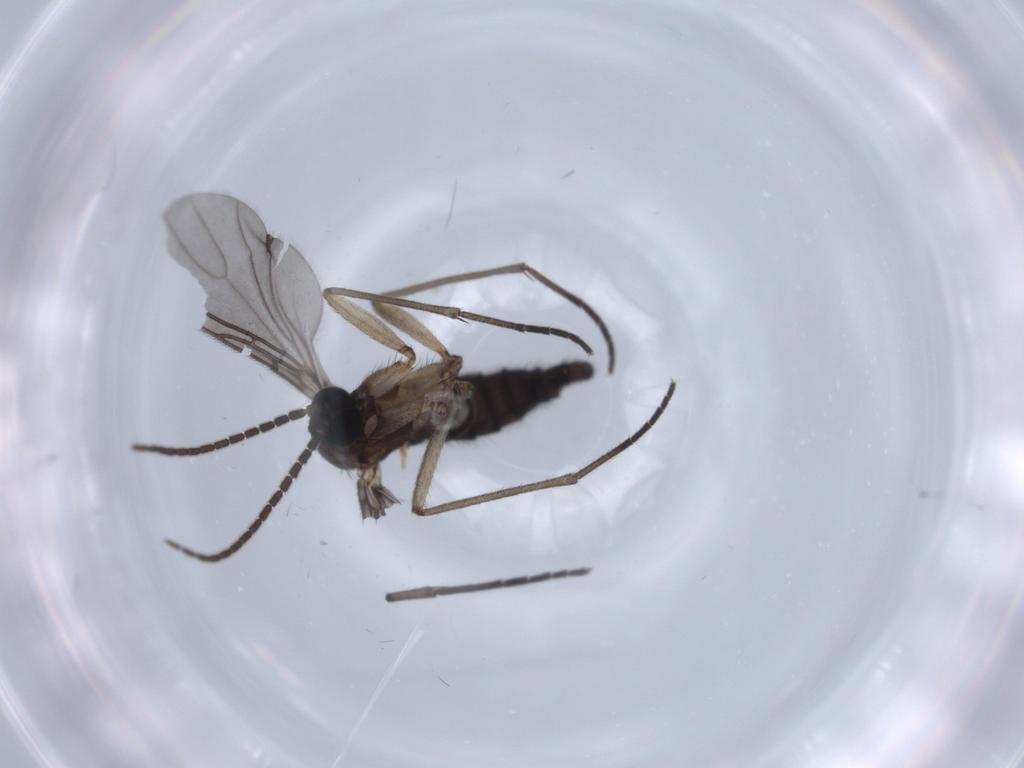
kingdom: Animalia
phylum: Arthropoda
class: Insecta
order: Diptera
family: Sciaridae
